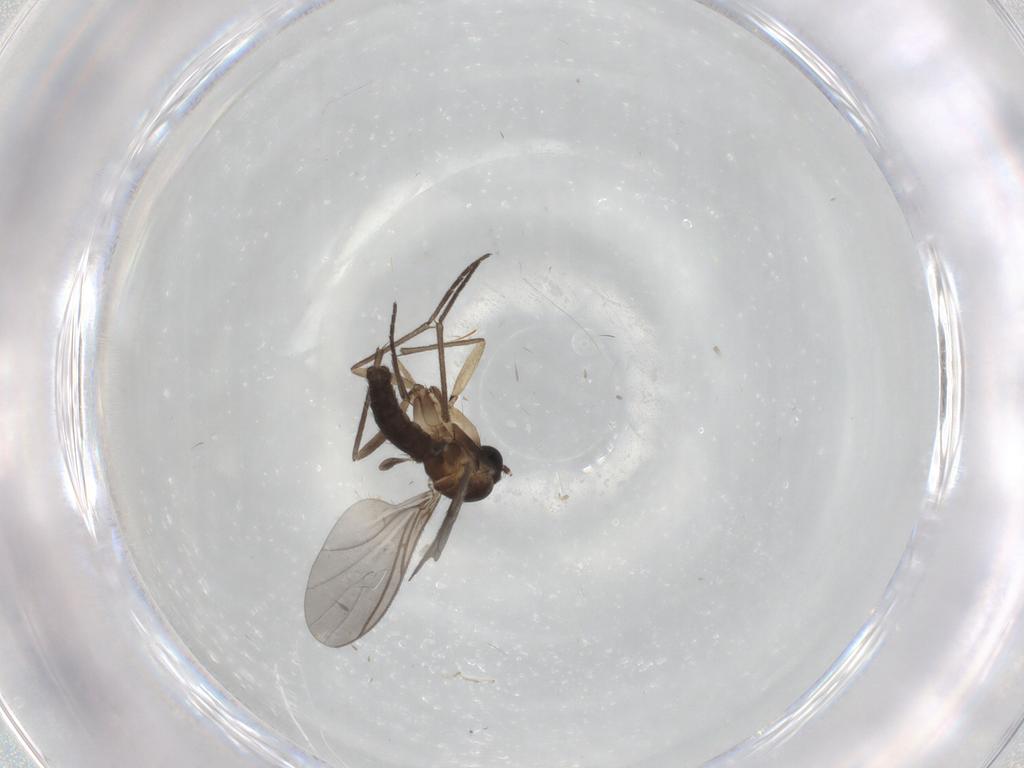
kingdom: Animalia
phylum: Arthropoda
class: Insecta
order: Diptera
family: Sciaridae
